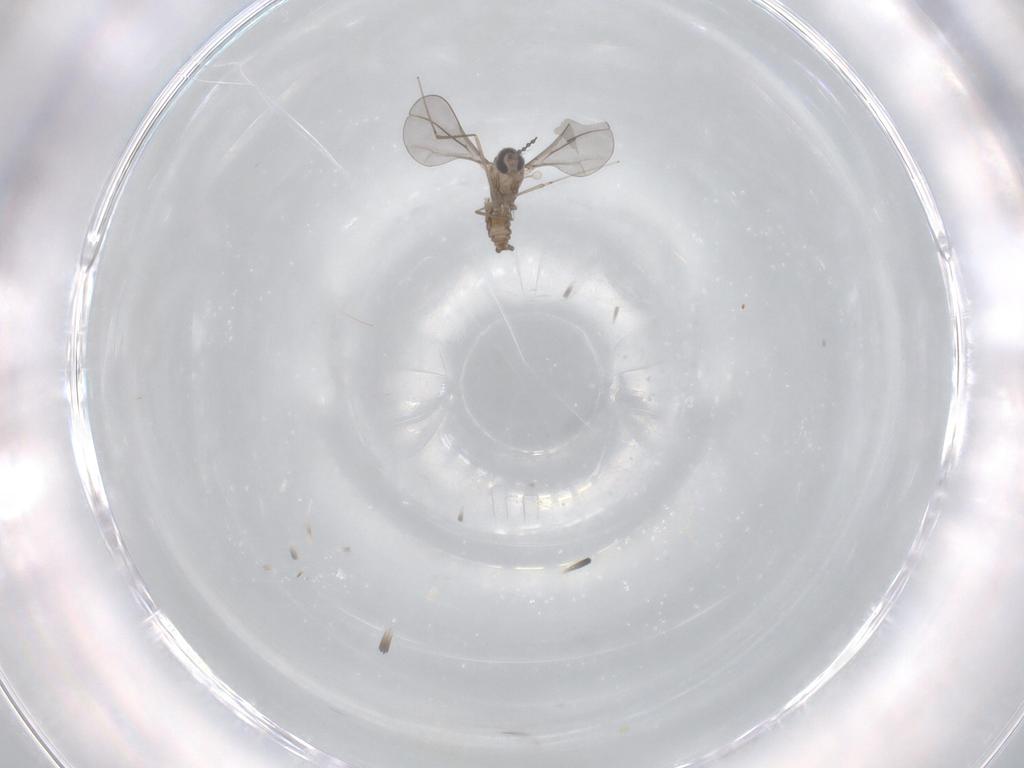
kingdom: Animalia
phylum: Arthropoda
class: Insecta
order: Diptera
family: Cecidomyiidae
